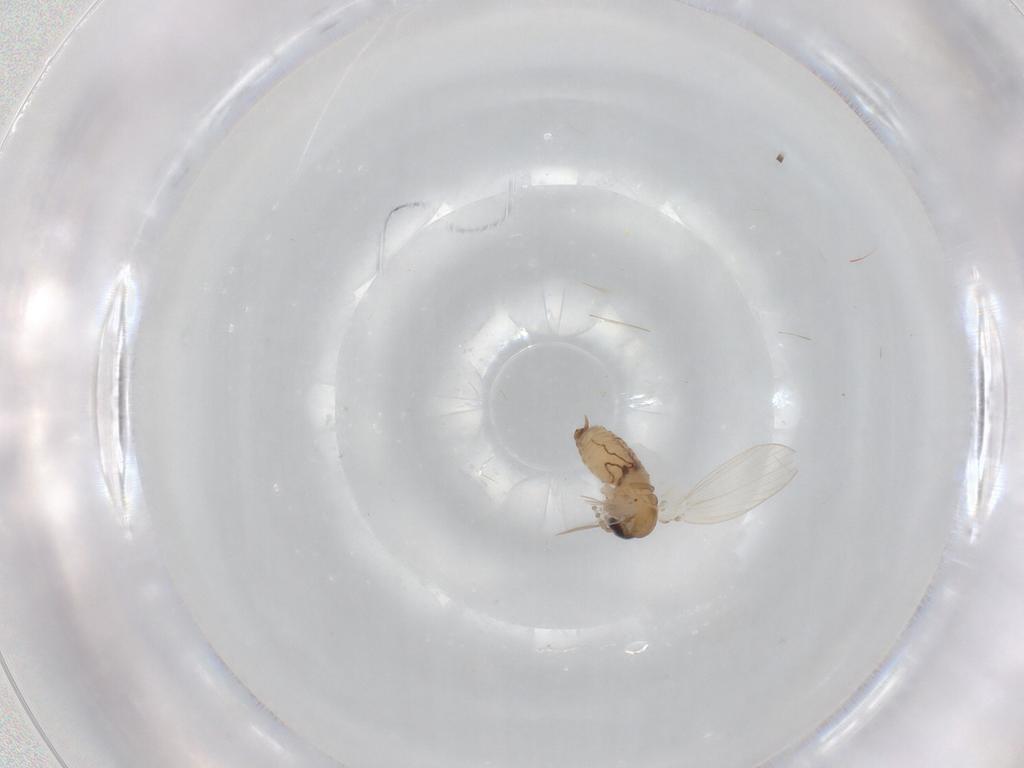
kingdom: Animalia
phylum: Arthropoda
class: Insecta
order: Diptera
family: Psychodidae
